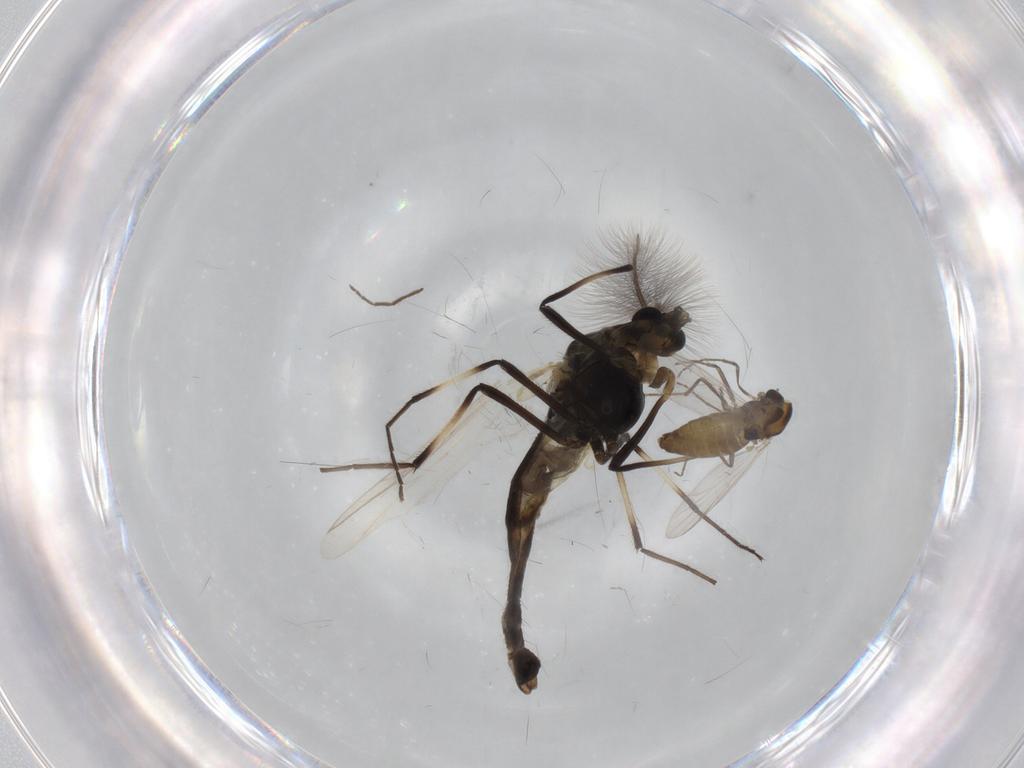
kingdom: Animalia
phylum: Arthropoda
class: Insecta
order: Diptera
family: Chironomidae
